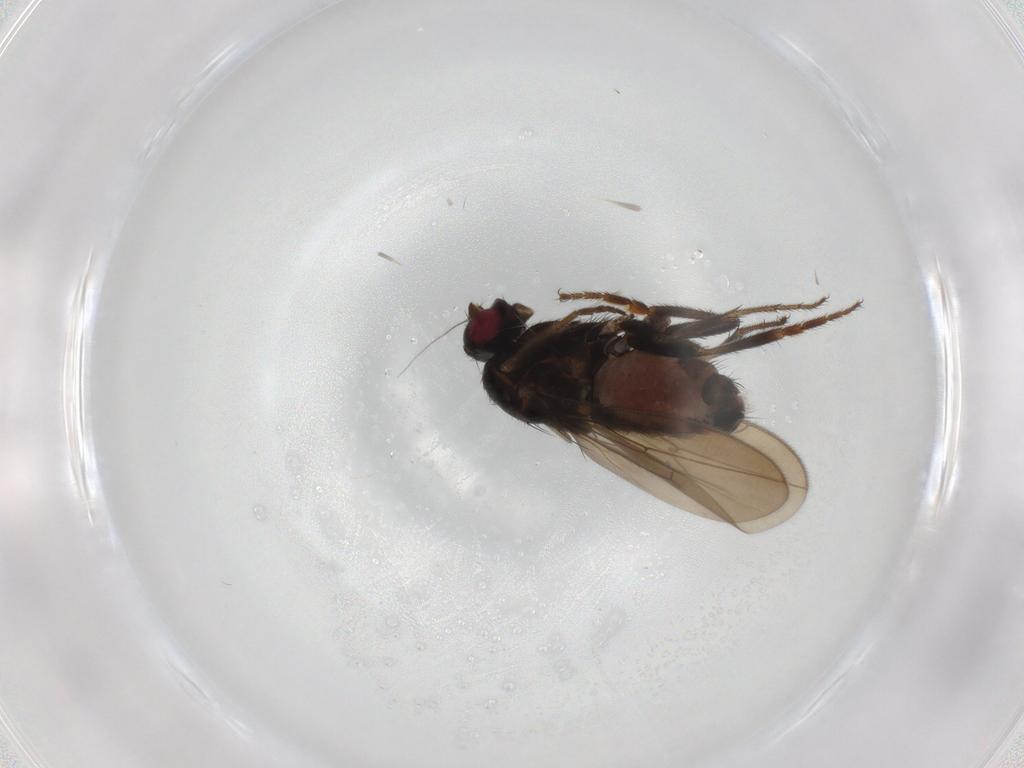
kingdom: Animalia
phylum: Arthropoda
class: Insecta
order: Diptera
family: Sphaeroceridae
